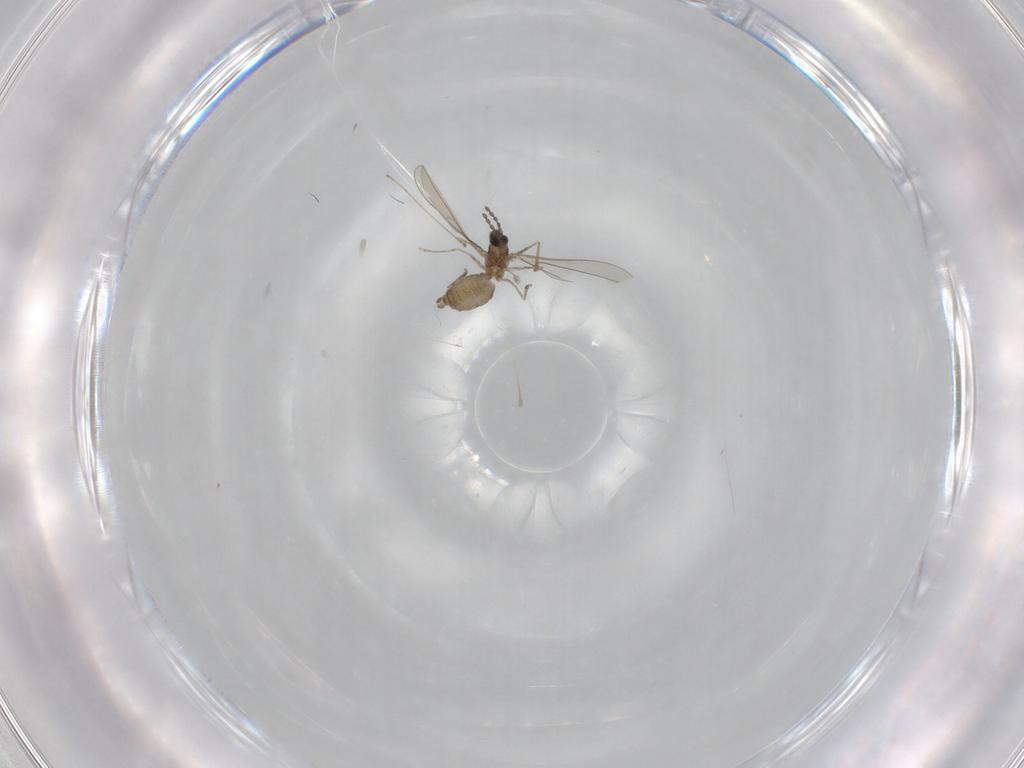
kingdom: Animalia
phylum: Arthropoda
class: Insecta
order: Diptera
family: Cecidomyiidae
